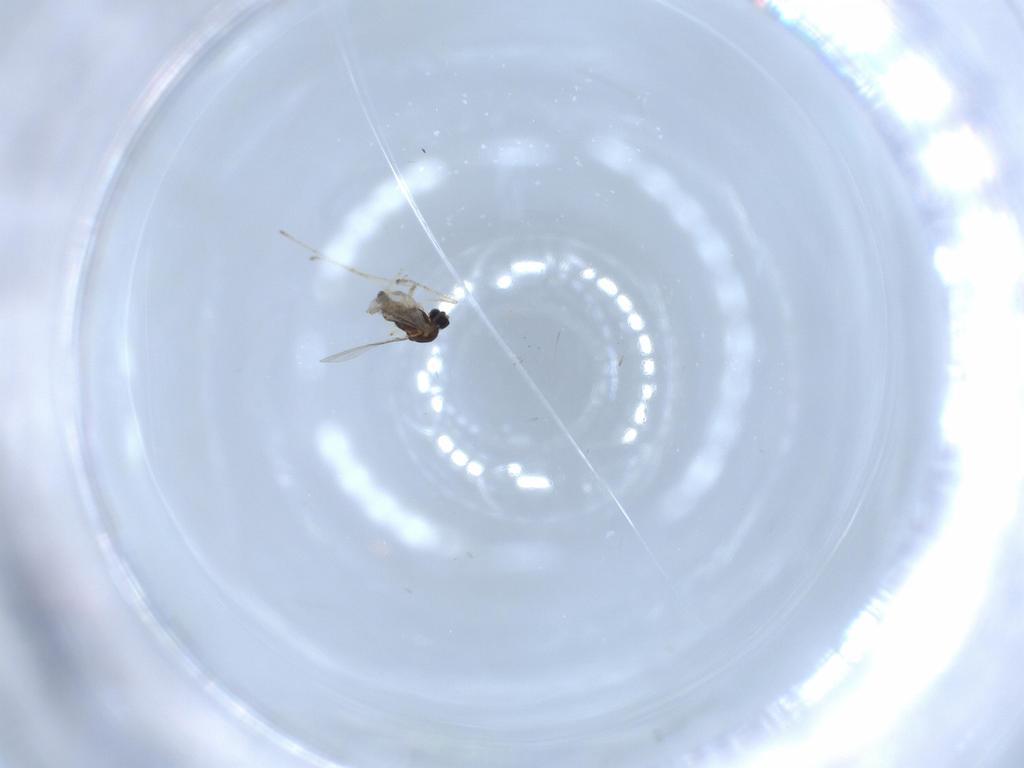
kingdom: Animalia
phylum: Arthropoda
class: Insecta
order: Diptera
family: Cecidomyiidae
